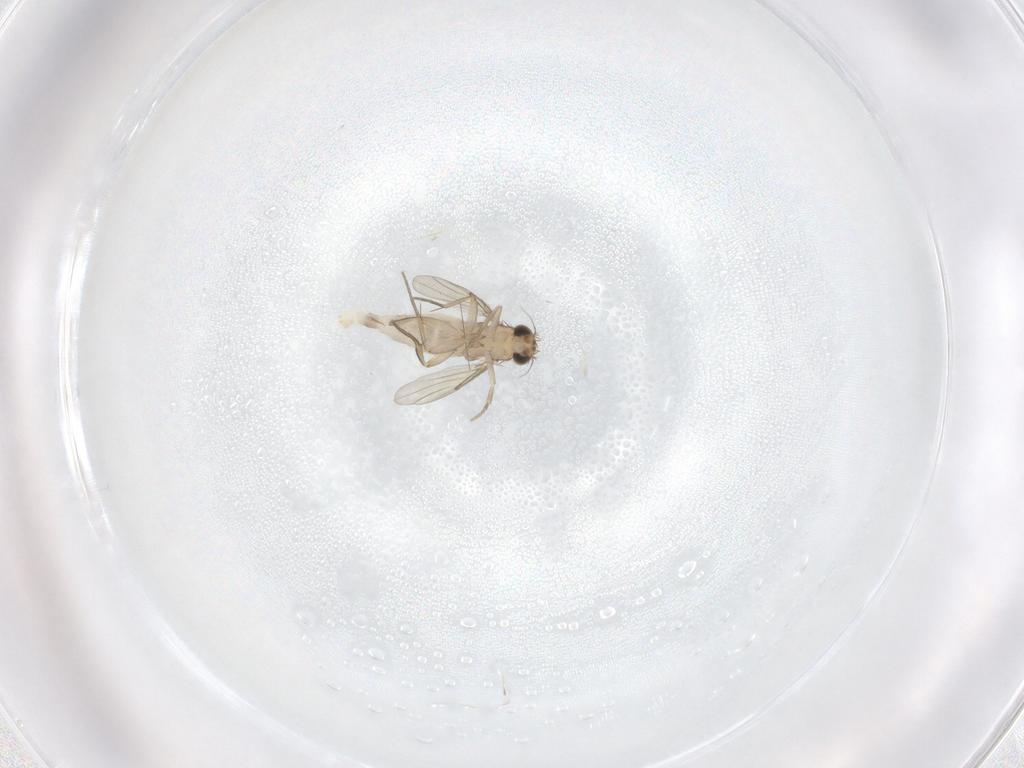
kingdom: Animalia
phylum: Arthropoda
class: Insecta
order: Diptera
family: Phoridae
